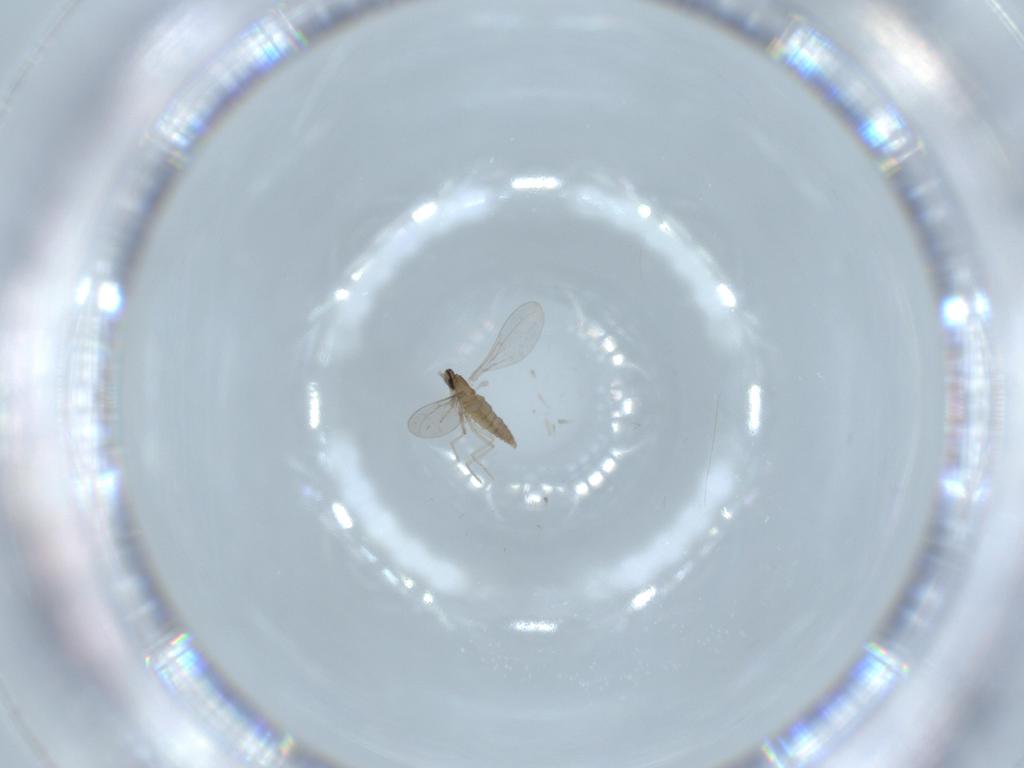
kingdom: Animalia
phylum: Arthropoda
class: Insecta
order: Diptera
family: Cecidomyiidae
